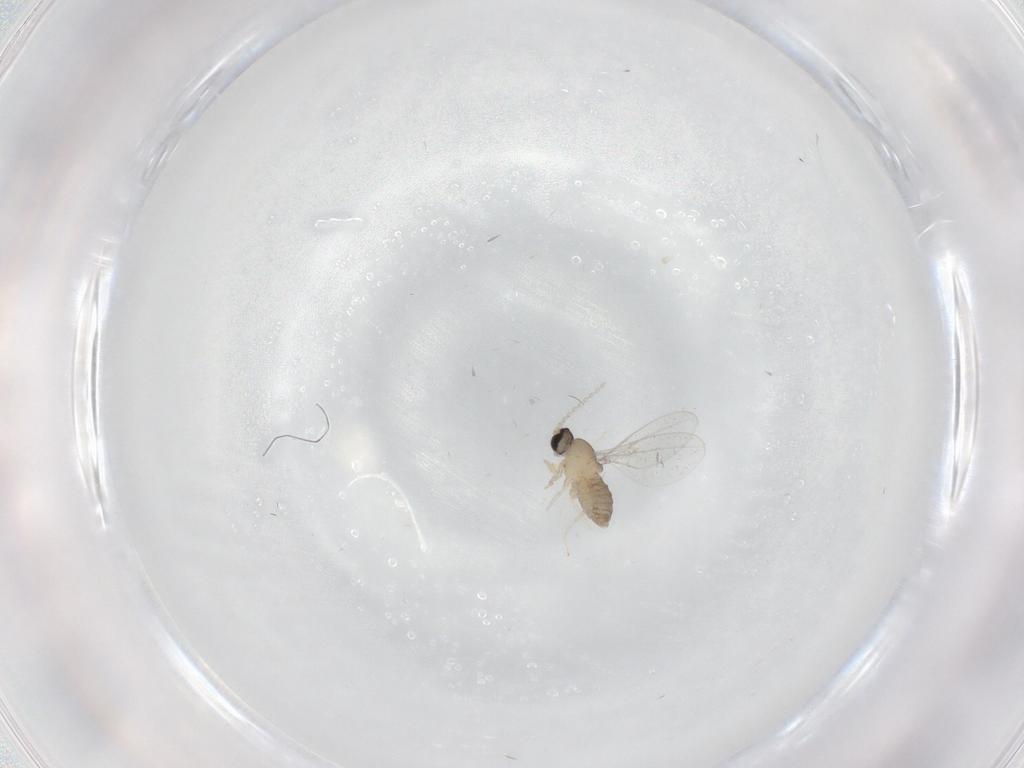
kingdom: Animalia
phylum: Arthropoda
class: Insecta
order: Diptera
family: Cecidomyiidae
